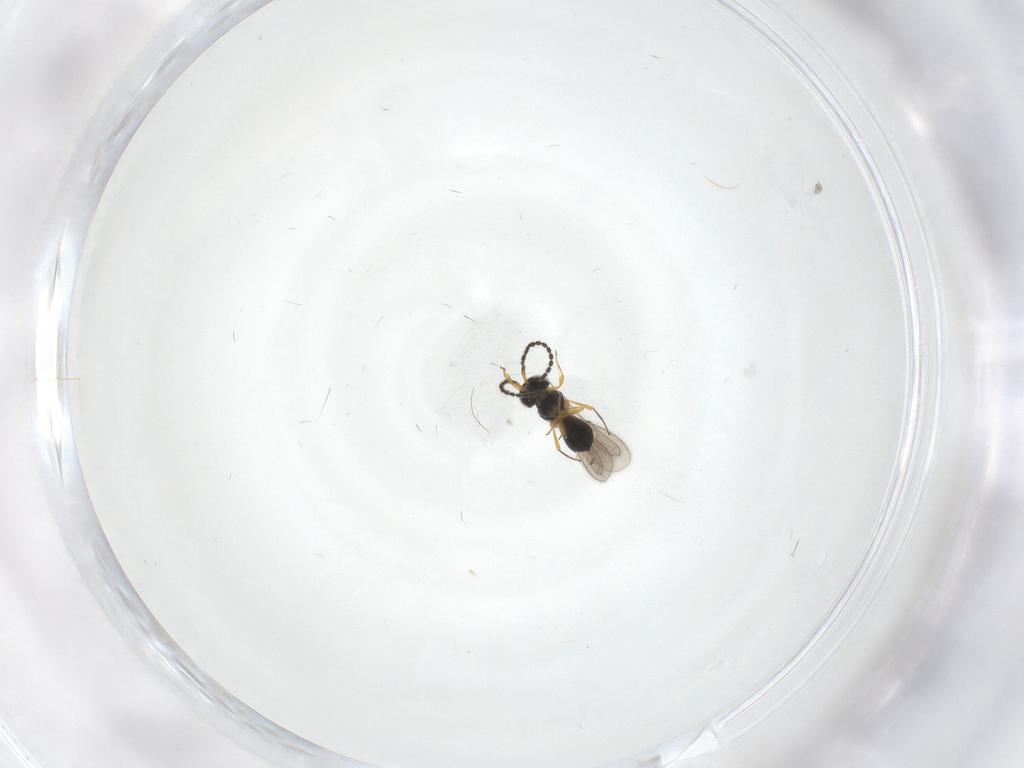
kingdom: Animalia
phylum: Arthropoda
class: Insecta
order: Hymenoptera
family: Scelionidae
